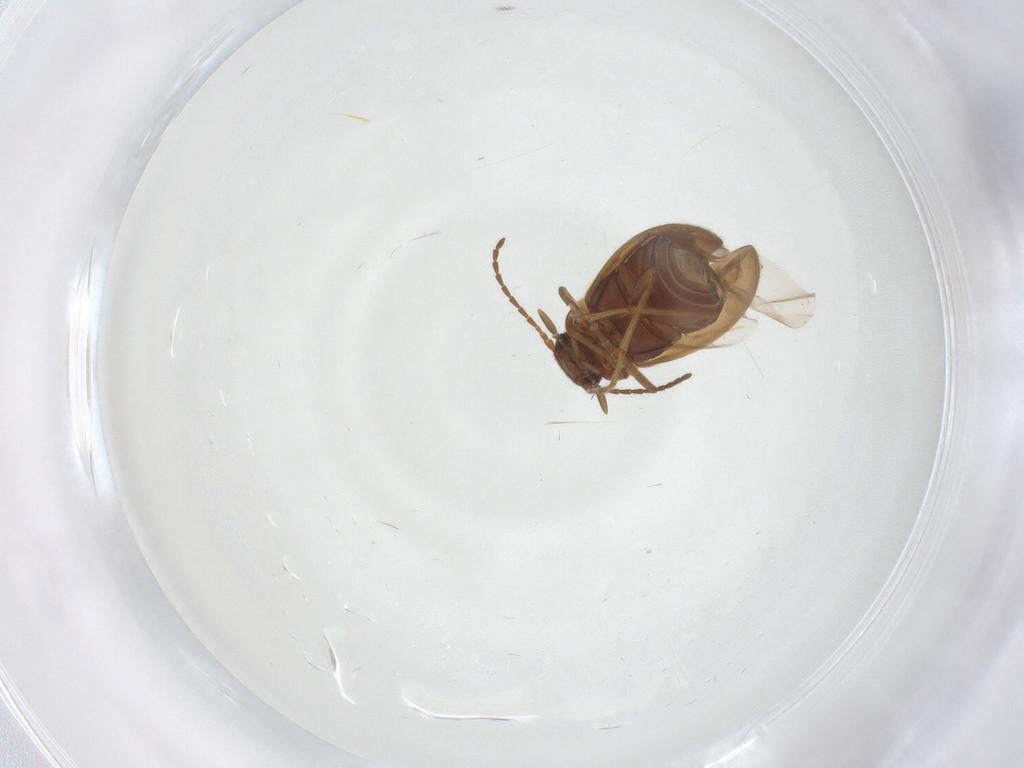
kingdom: Animalia
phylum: Arthropoda
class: Insecta
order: Coleoptera
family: Scraptiidae
